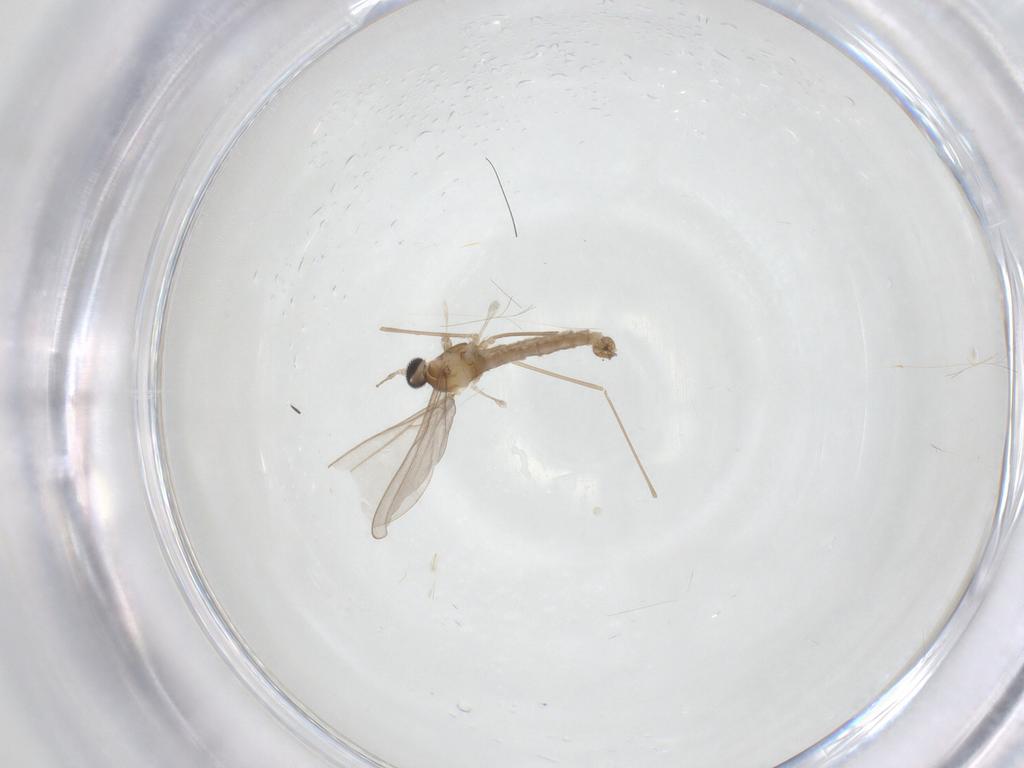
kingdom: Animalia
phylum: Arthropoda
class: Insecta
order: Diptera
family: Cecidomyiidae
